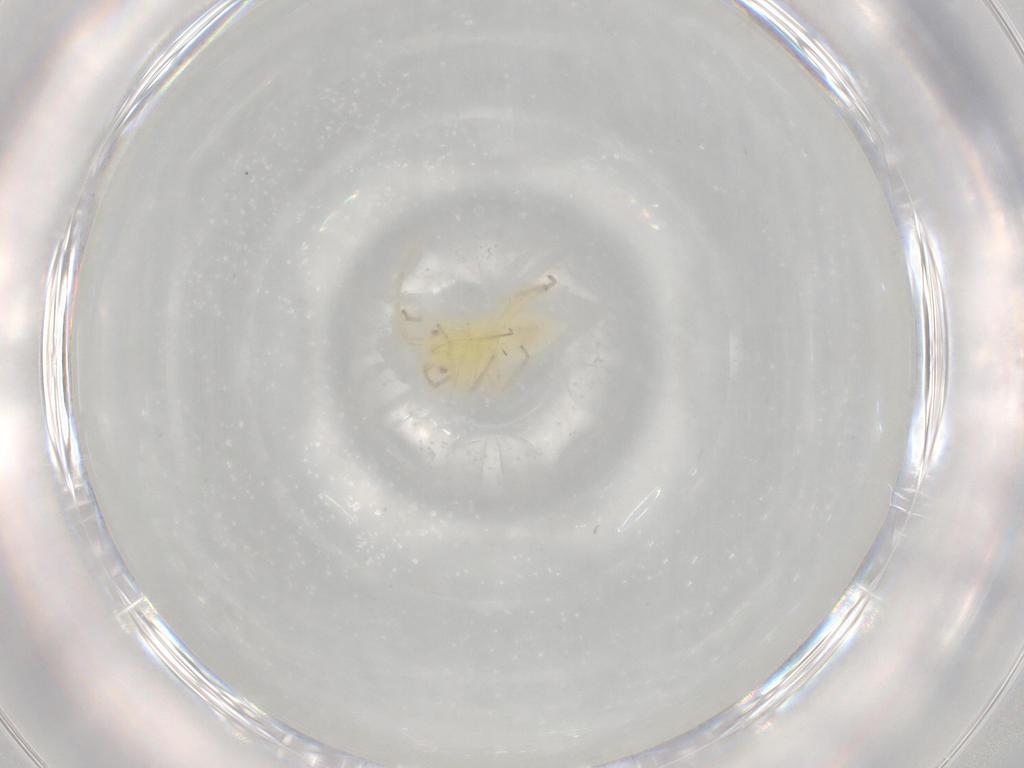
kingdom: Animalia
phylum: Arthropoda
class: Insecta
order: Hemiptera
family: Miridae
